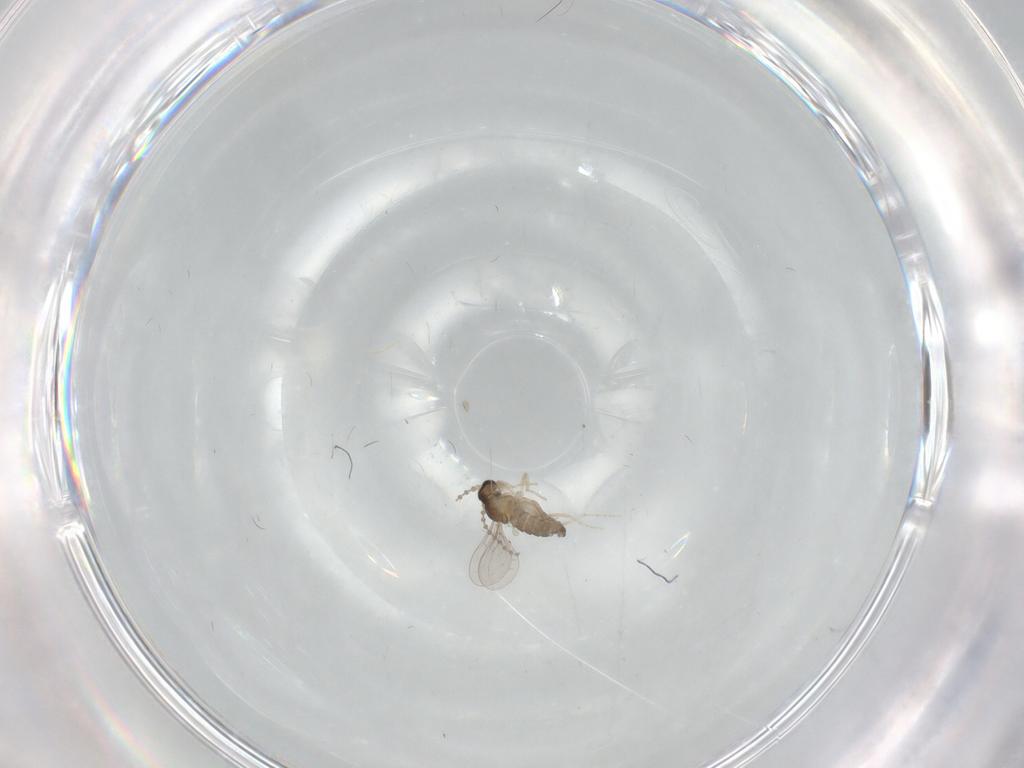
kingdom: Animalia
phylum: Arthropoda
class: Insecta
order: Diptera
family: Cecidomyiidae
